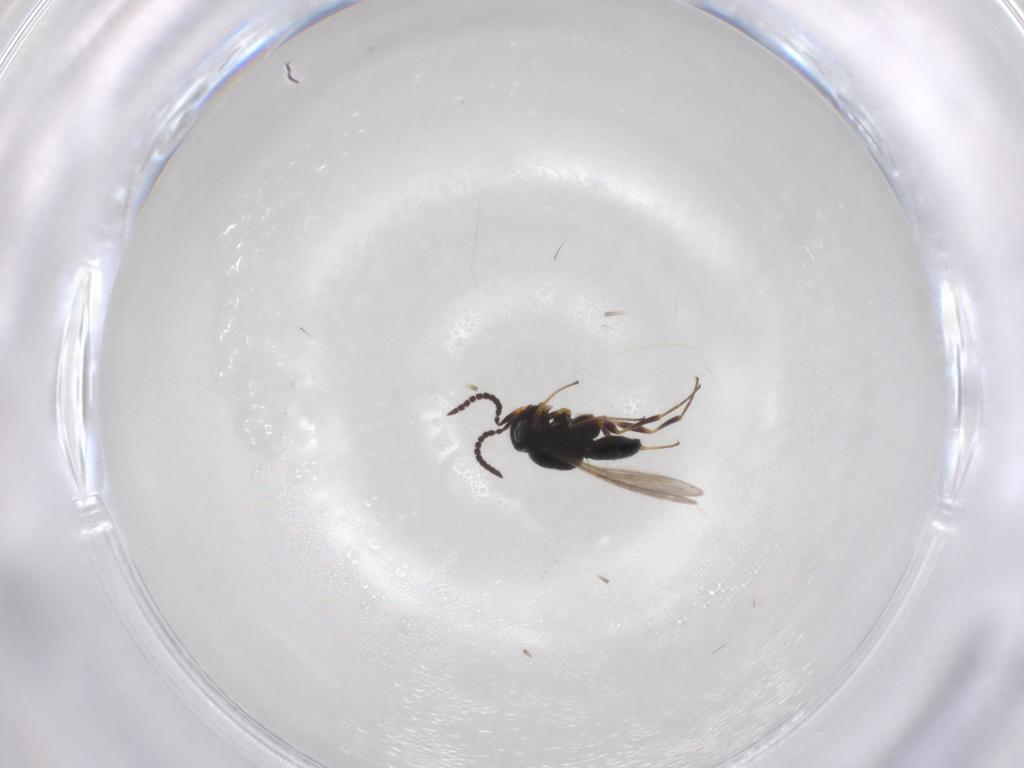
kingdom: Animalia
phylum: Arthropoda
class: Insecta
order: Hymenoptera
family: Scelionidae
